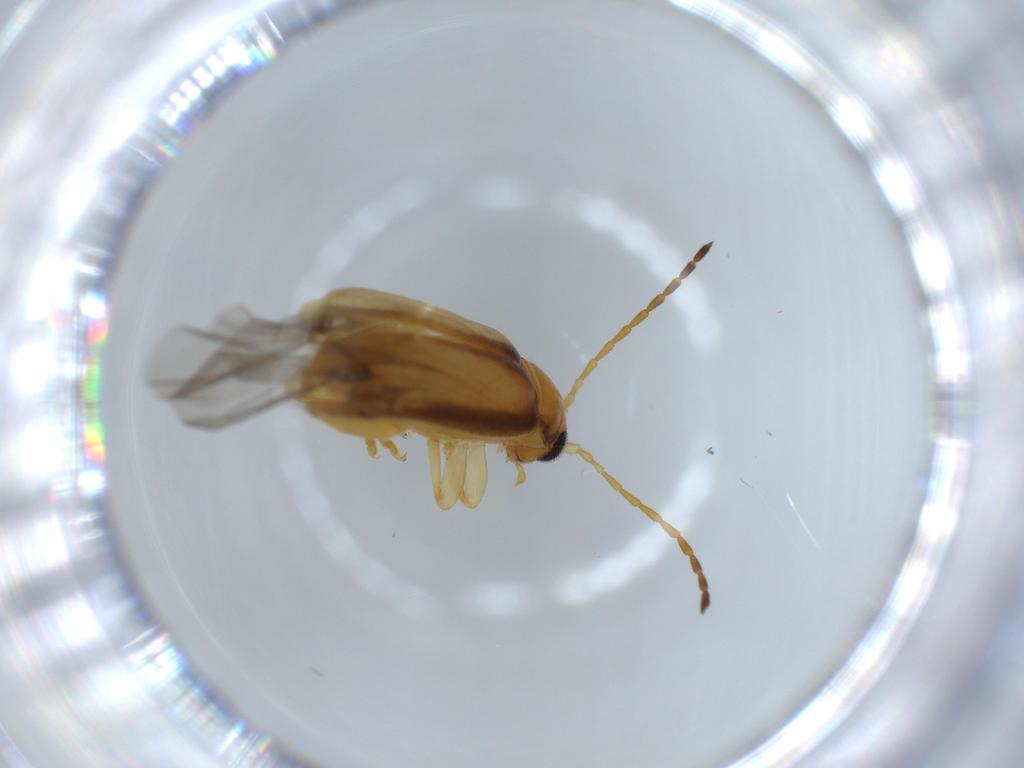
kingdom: Animalia
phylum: Arthropoda
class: Insecta
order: Coleoptera
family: Chrysomelidae
